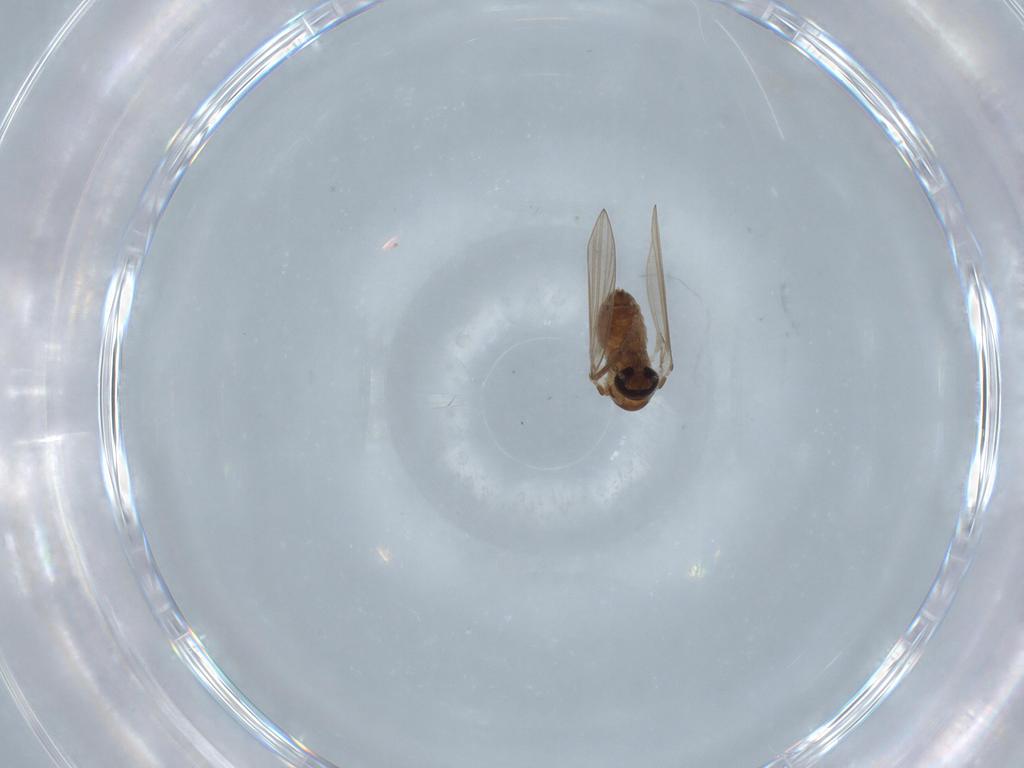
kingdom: Animalia
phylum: Arthropoda
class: Insecta
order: Diptera
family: Psychodidae
